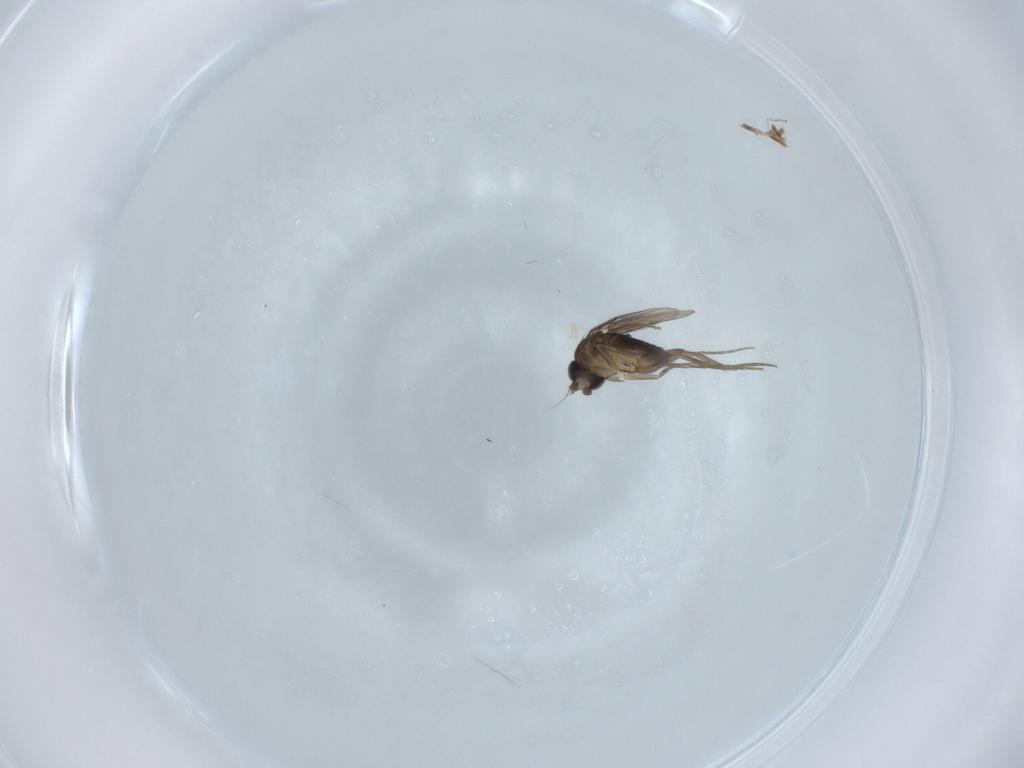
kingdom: Animalia
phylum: Arthropoda
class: Insecta
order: Diptera
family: Phoridae
